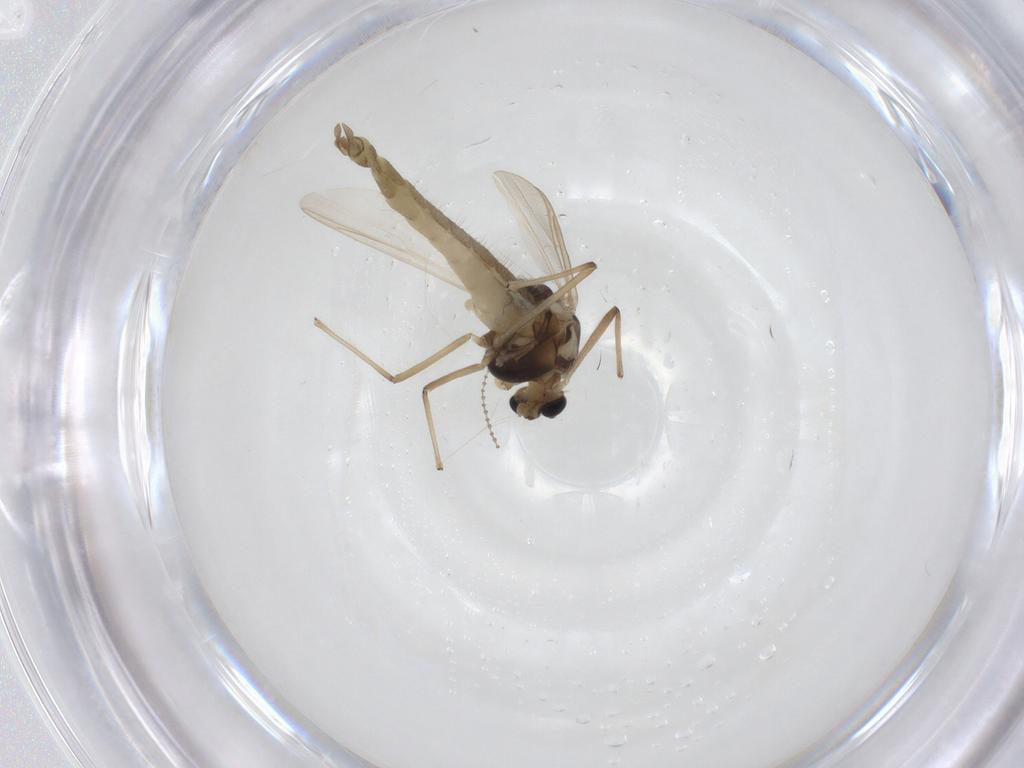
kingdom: Animalia
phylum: Arthropoda
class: Insecta
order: Diptera
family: Chironomidae
